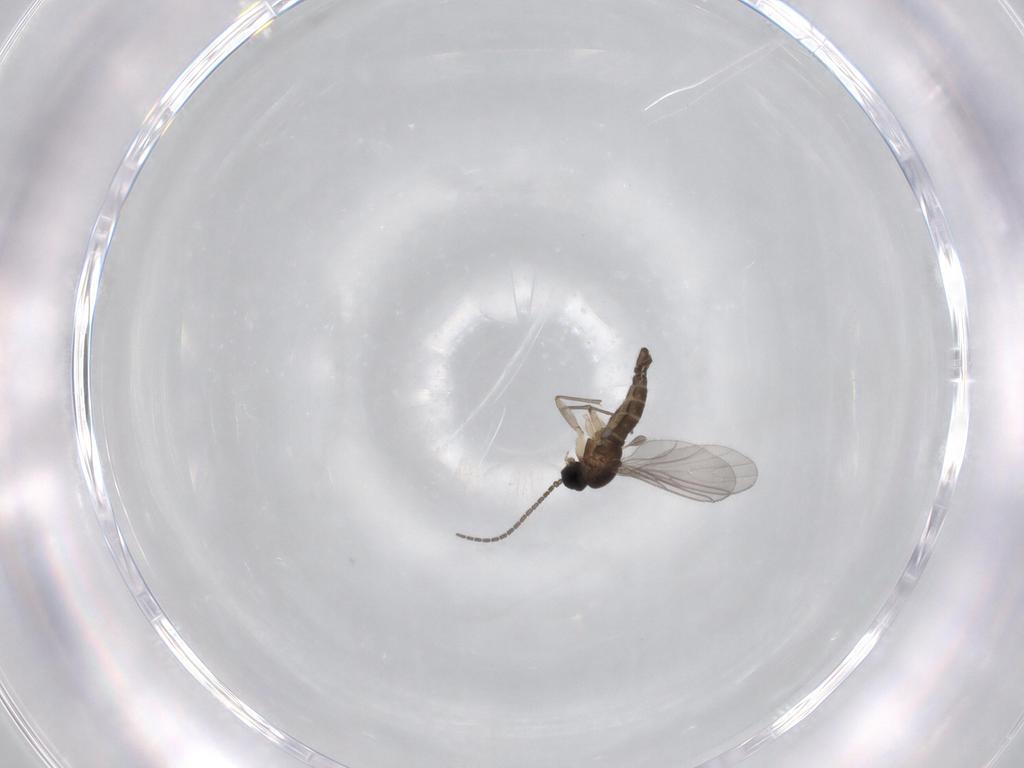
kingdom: Animalia
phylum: Arthropoda
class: Insecta
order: Diptera
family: Sciaridae
